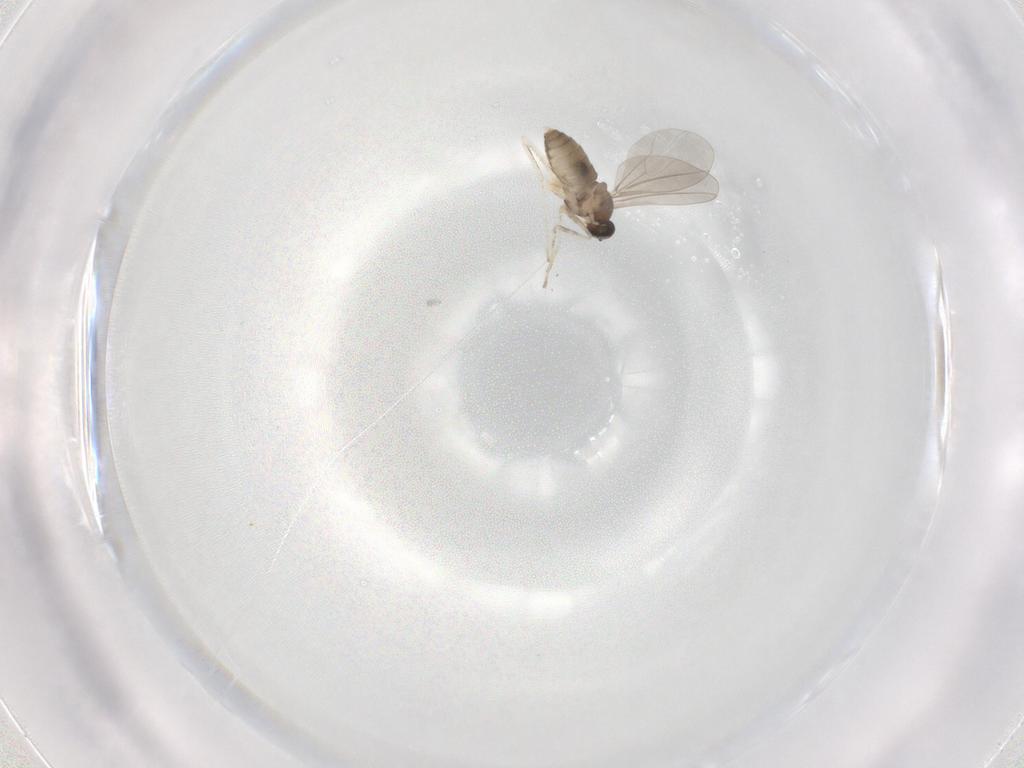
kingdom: Animalia
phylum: Arthropoda
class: Insecta
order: Diptera
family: Cecidomyiidae
